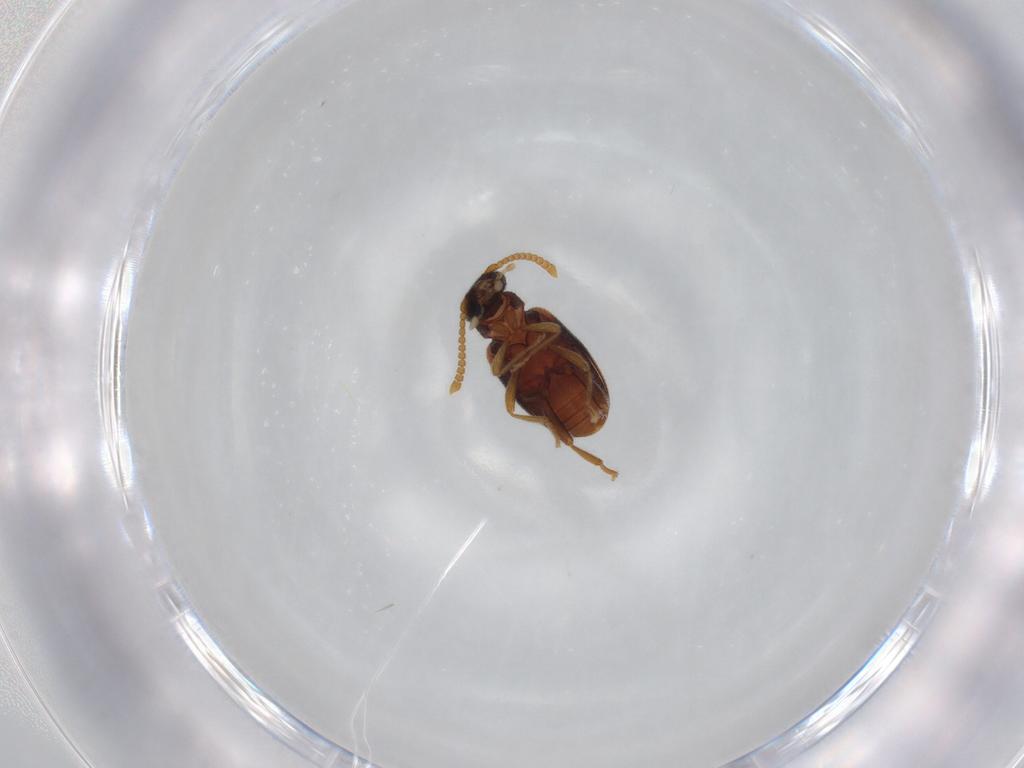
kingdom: Animalia
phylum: Arthropoda
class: Insecta
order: Coleoptera
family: Aderidae
